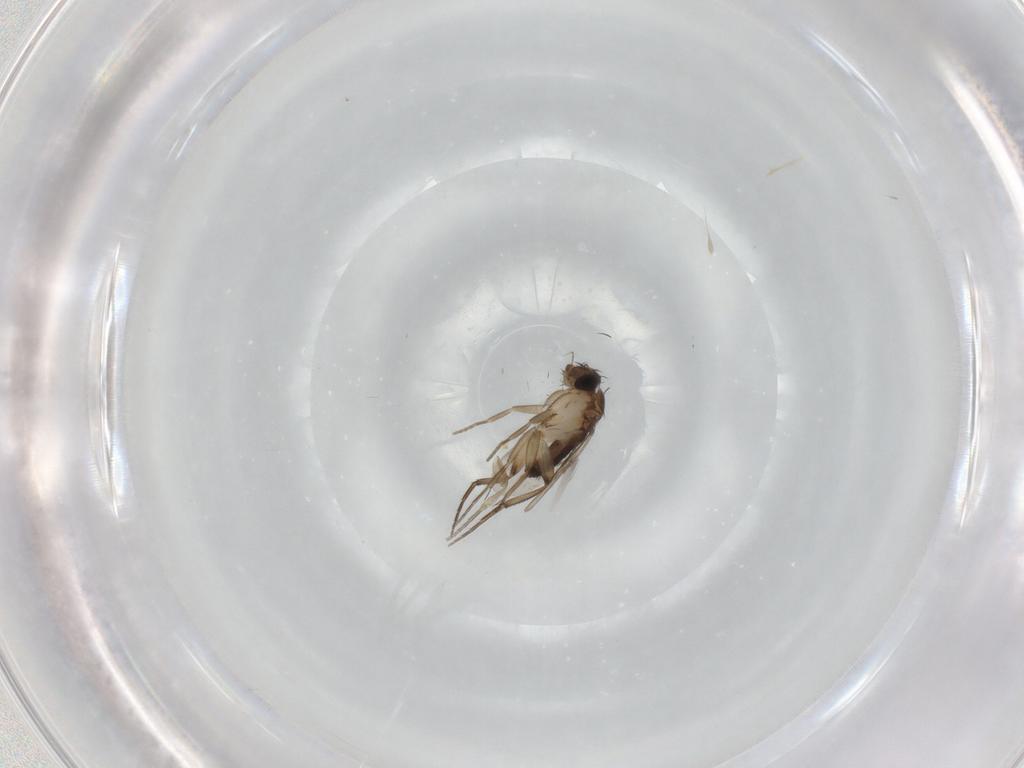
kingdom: Animalia
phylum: Arthropoda
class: Insecta
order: Diptera
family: Phoridae
